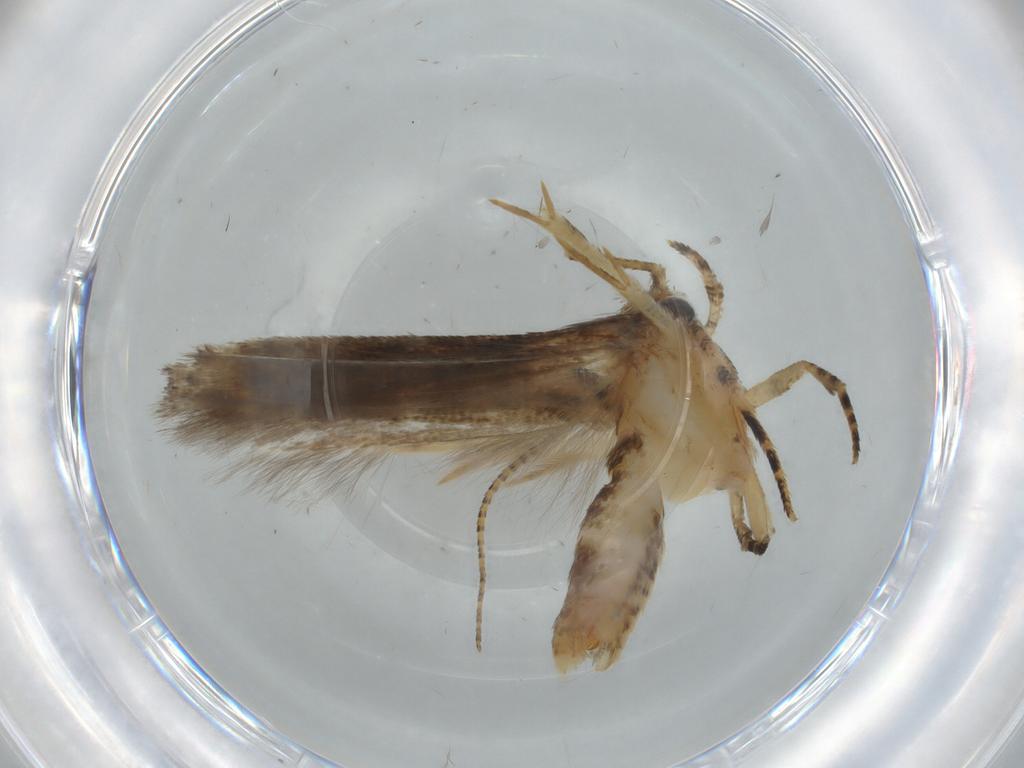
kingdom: Animalia
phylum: Arthropoda
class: Insecta
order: Lepidoptera
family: Gelechiidae
